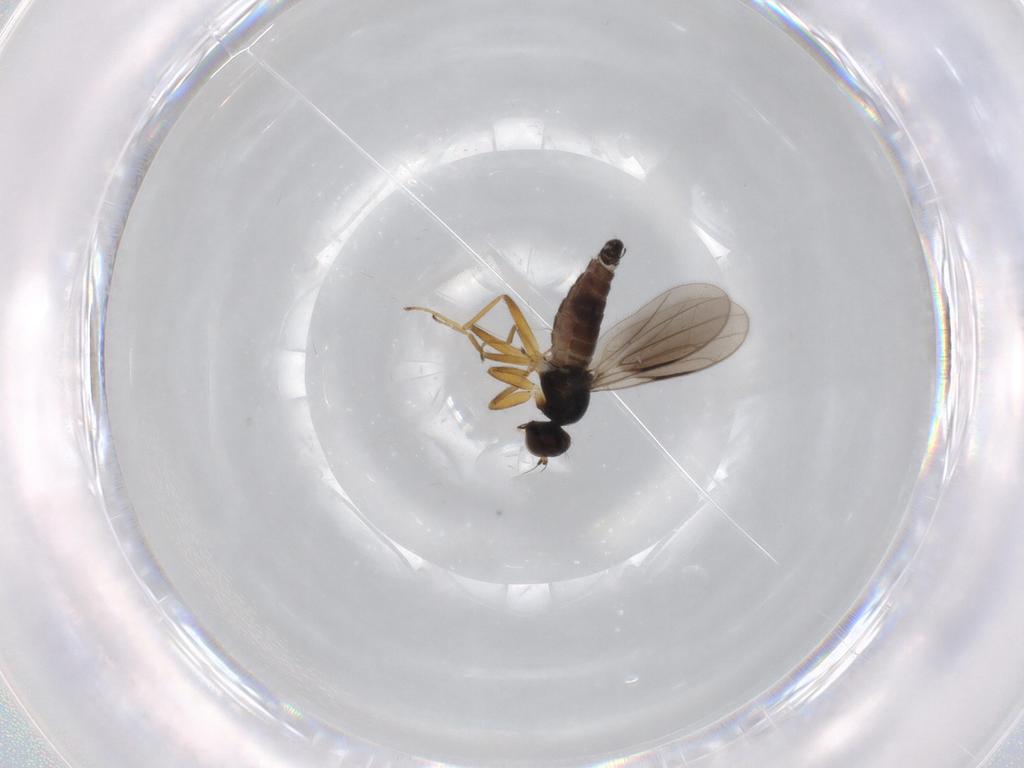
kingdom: Animalia
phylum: Arthropoda
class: Insecta
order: Diptera
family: Hybotidae
